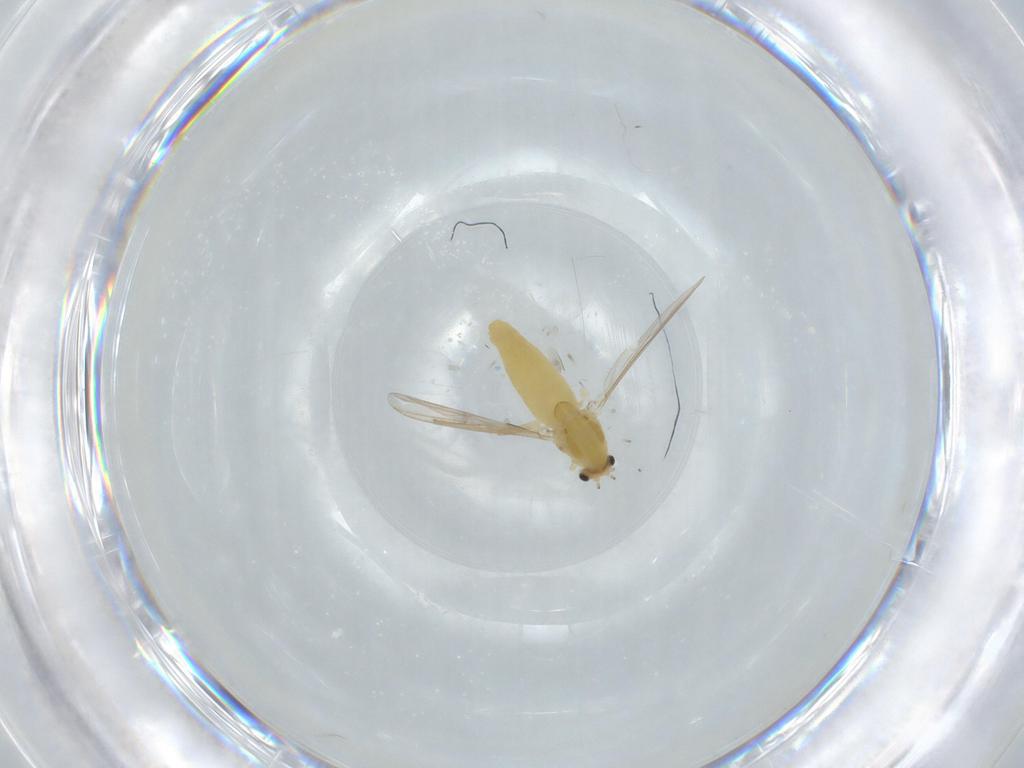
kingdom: Animalia
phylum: Arthropoda
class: Insecta
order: Diptera
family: Chironomidae
